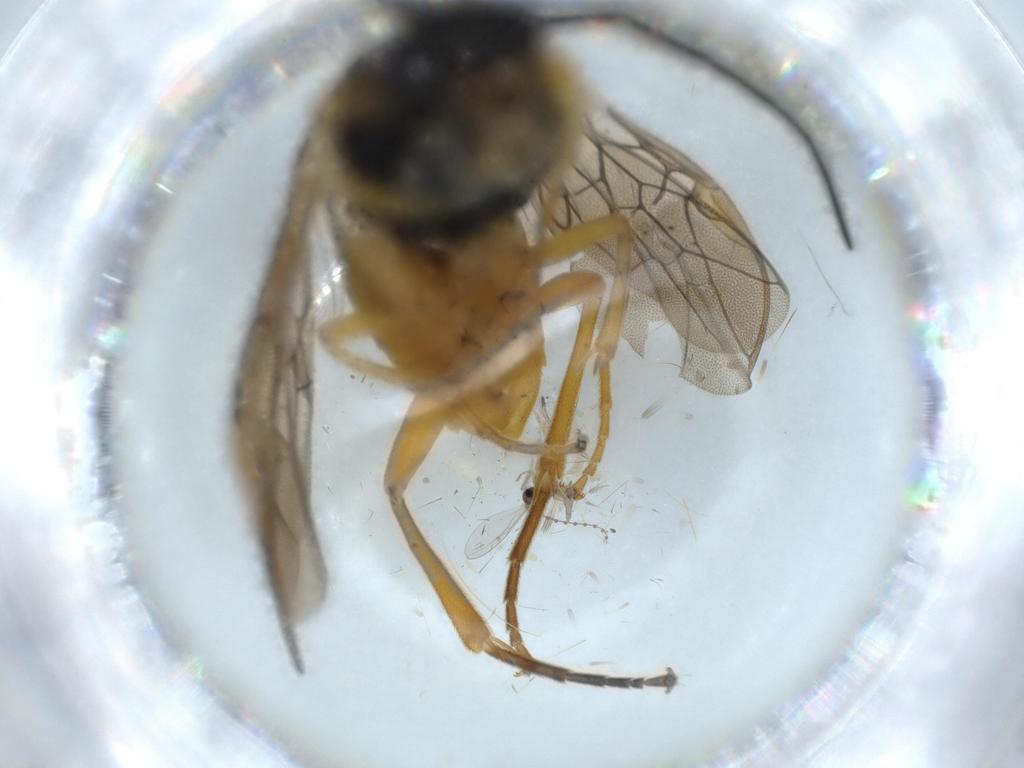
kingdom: Animalia
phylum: Arthropoda
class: Insecta
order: Hymenoptera
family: Tenthredinidae
